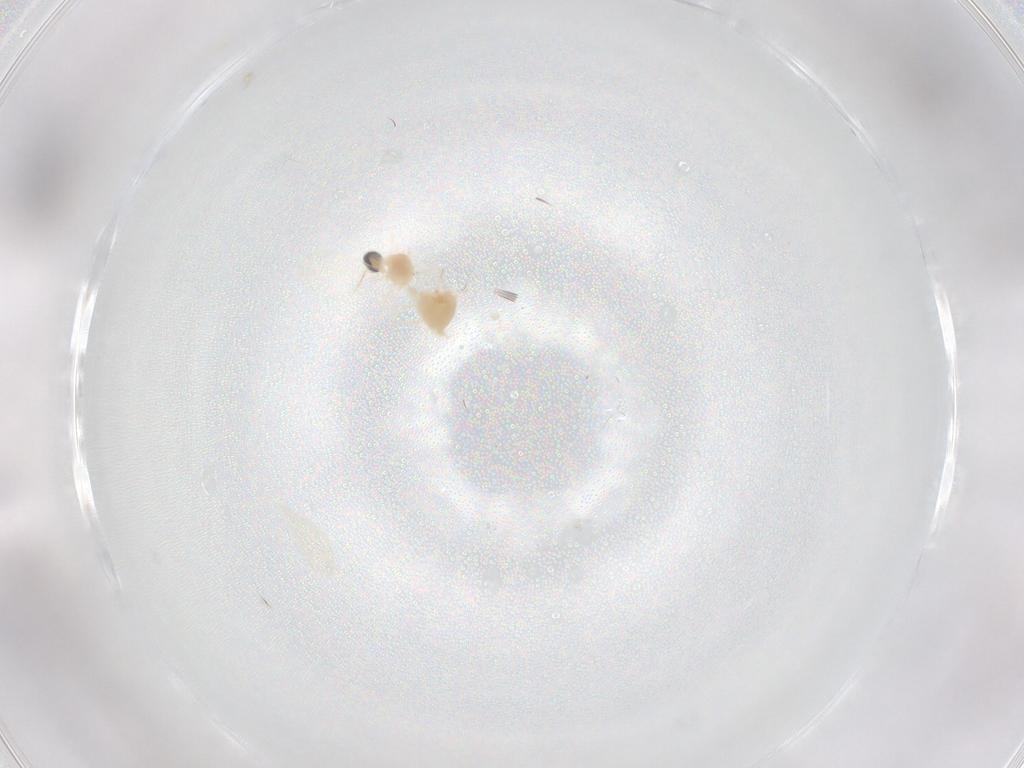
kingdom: Animalia
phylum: Arthropoda
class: Insecta
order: Diptera
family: Cecidomyiidae
